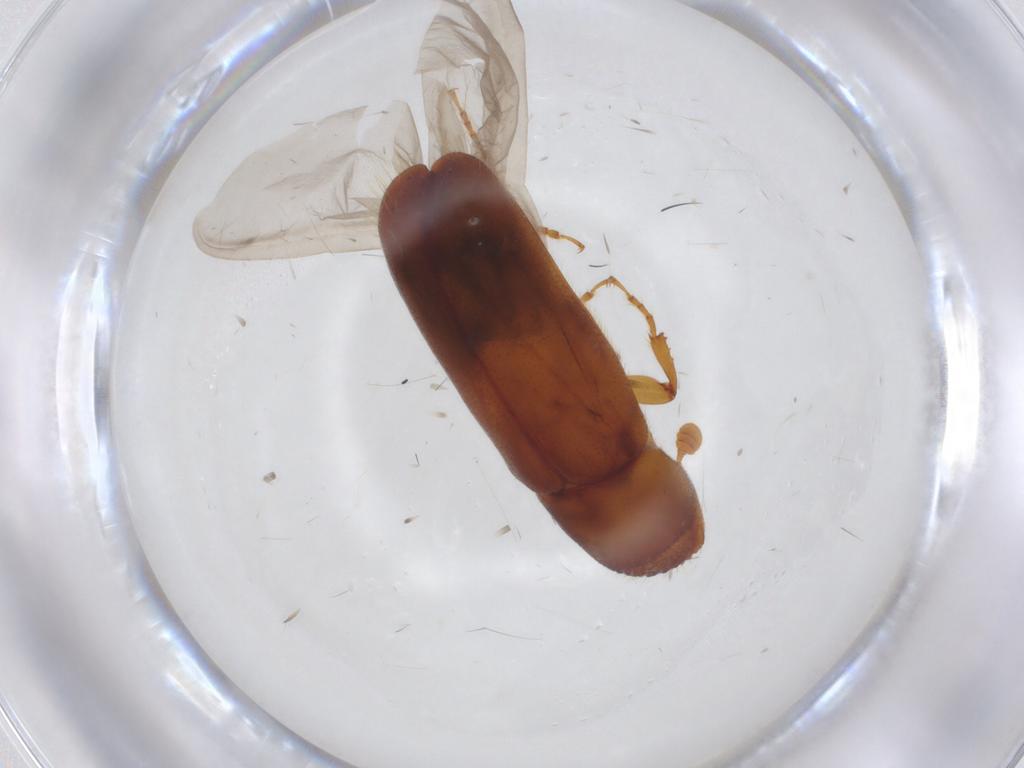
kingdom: Animalia
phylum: Arthropoda
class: Insecta
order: Coleoptera
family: Curculionidae
